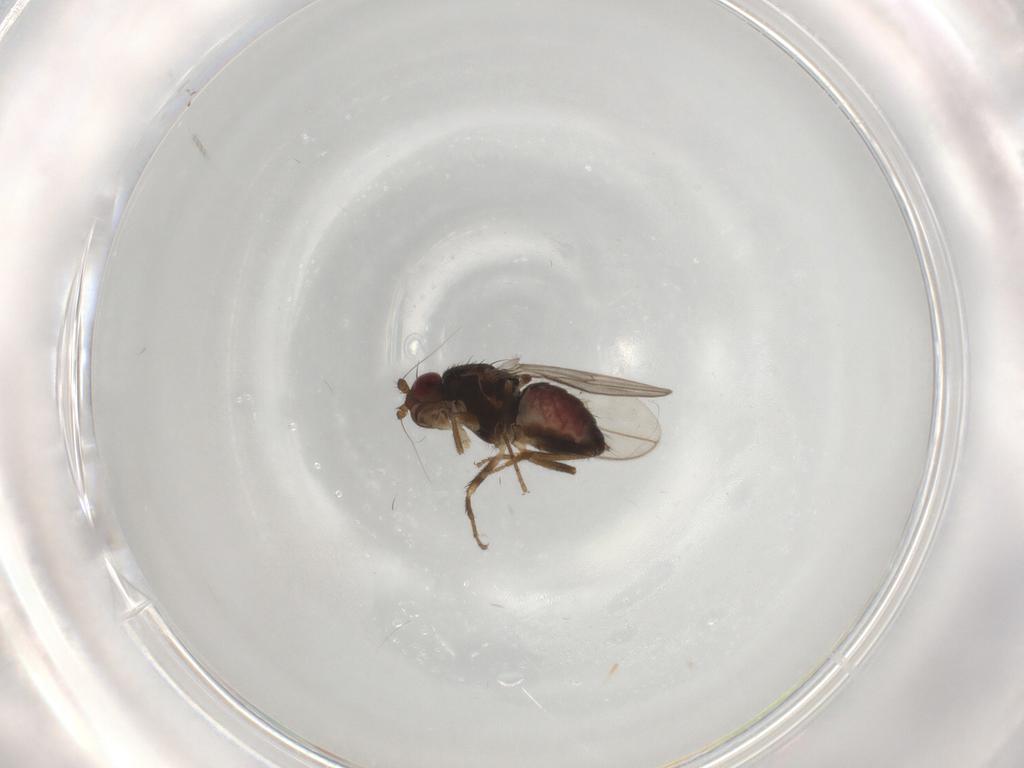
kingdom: Animalia
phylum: Arthropoda
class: Insecta
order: Diptera
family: Sphaeroceridae
